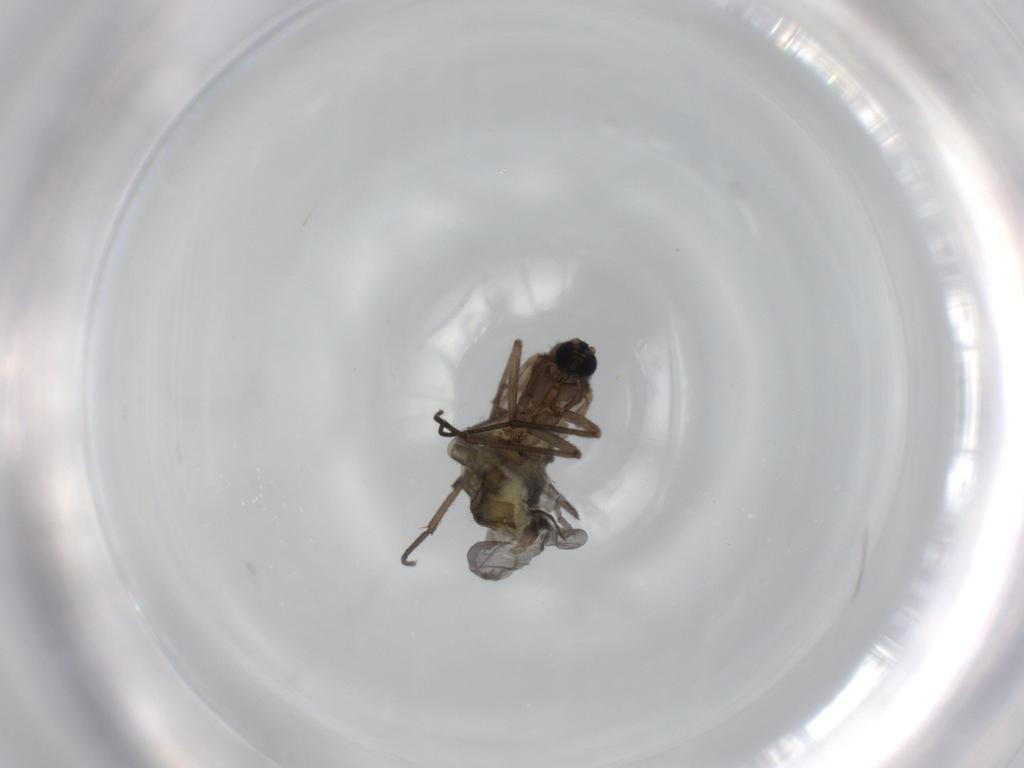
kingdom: Animalia
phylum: Arthropoda
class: Insecta
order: Diptera
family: Sciaridae
